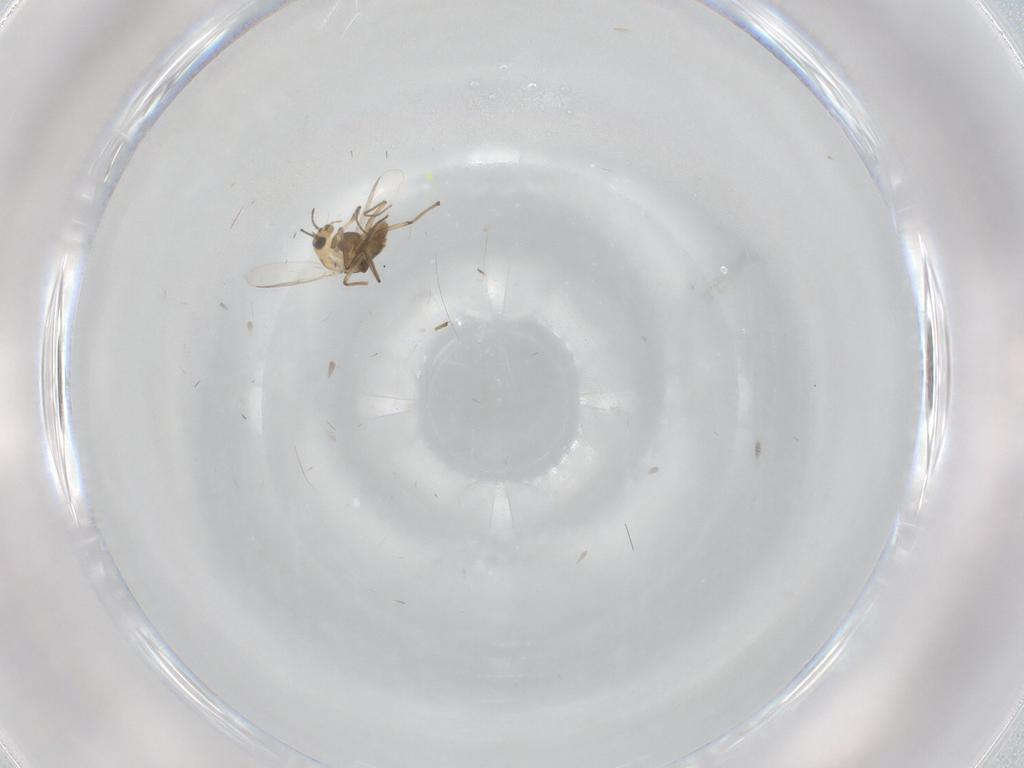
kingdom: Animalia
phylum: Arthropoda
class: Insecta
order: Diptera
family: Chironomidae
